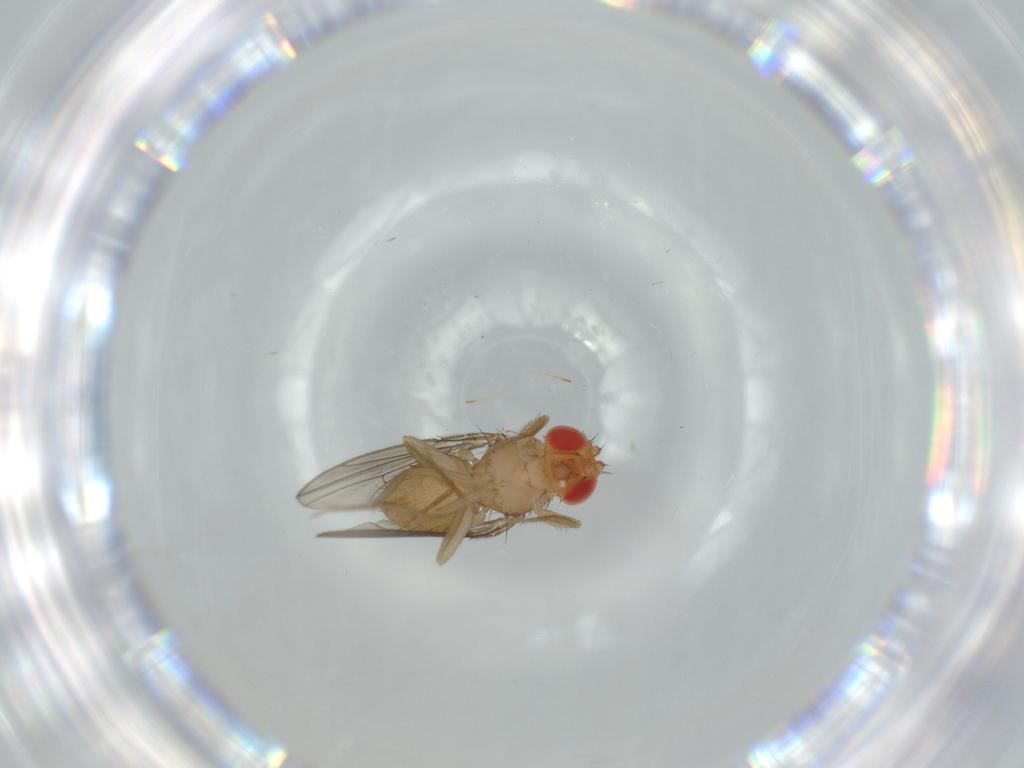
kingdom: Animalia
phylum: Arthropoda
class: Insecta
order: Diptera
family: Drosophilidae
